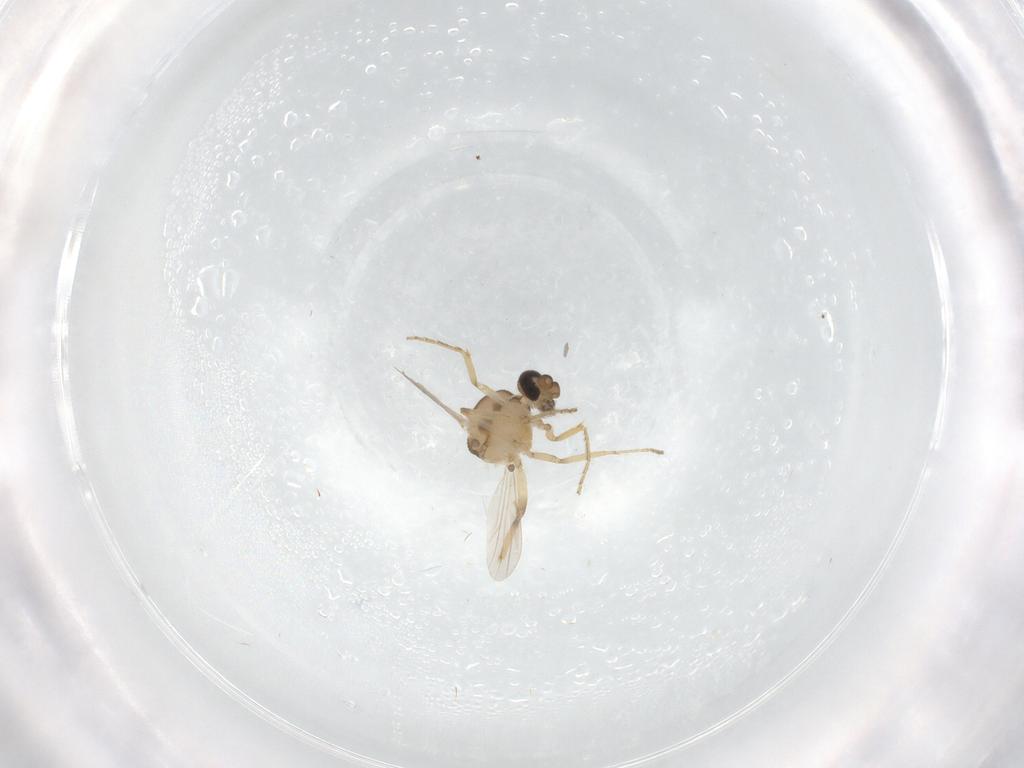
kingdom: Animalia
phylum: Arthropoda
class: Insecta
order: Diptera
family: Ceratopogonidae
